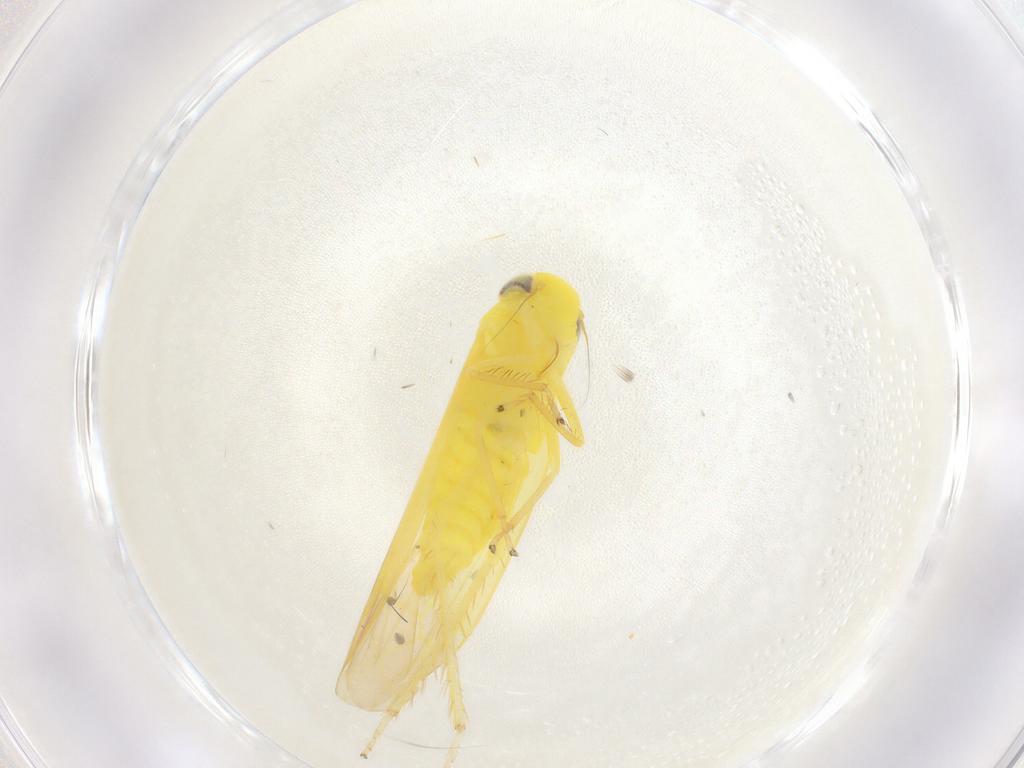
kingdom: Animalia
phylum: Arthropoda
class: Insecta
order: Hemiptera
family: Cicadellidae
